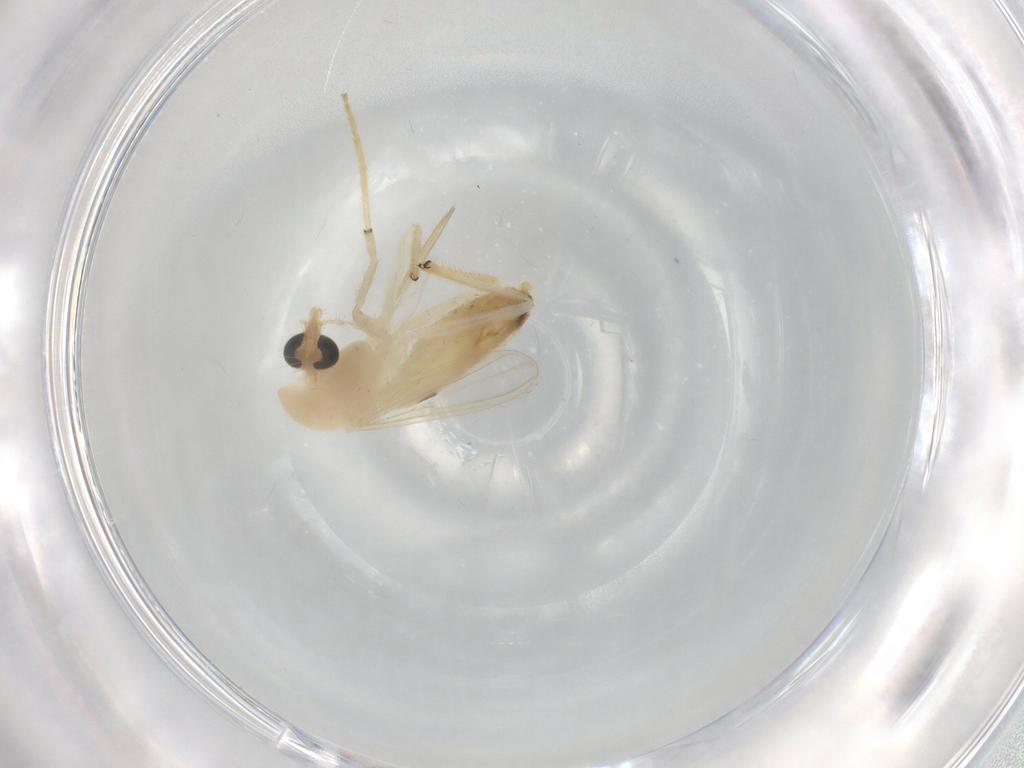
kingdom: Animalia
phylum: Arthropoda
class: Insecta
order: Diptera
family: Chironomidae
